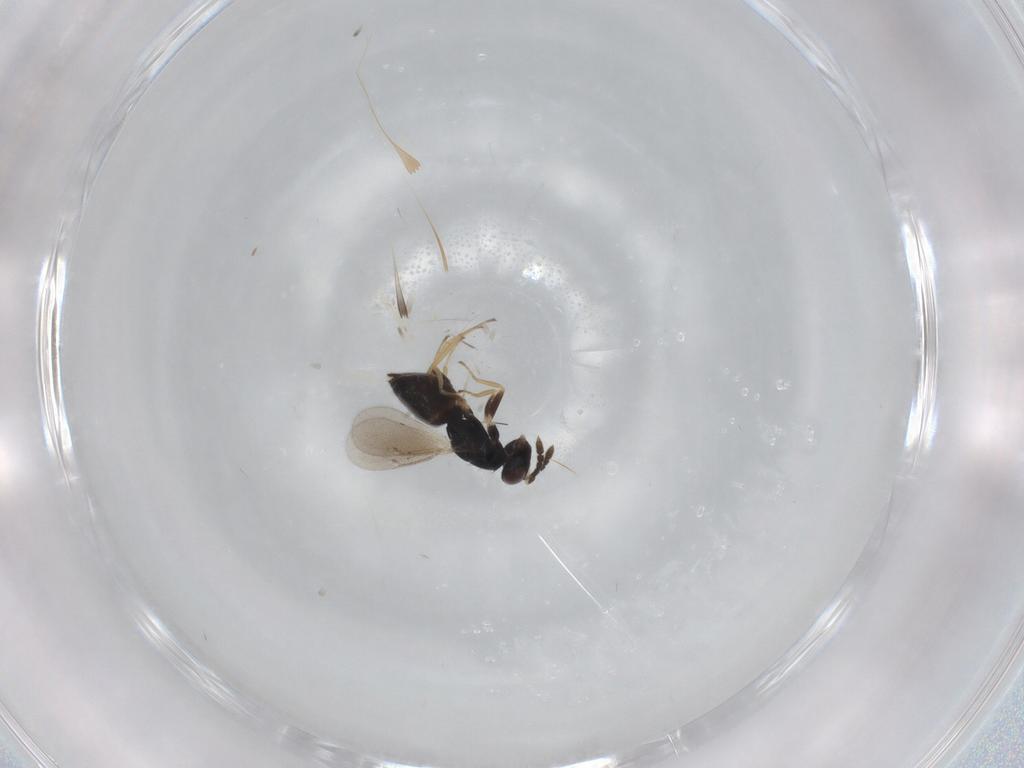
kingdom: Animalia
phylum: Arthropoda
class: Insecta
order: Hymenoptera
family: Eulophidae
